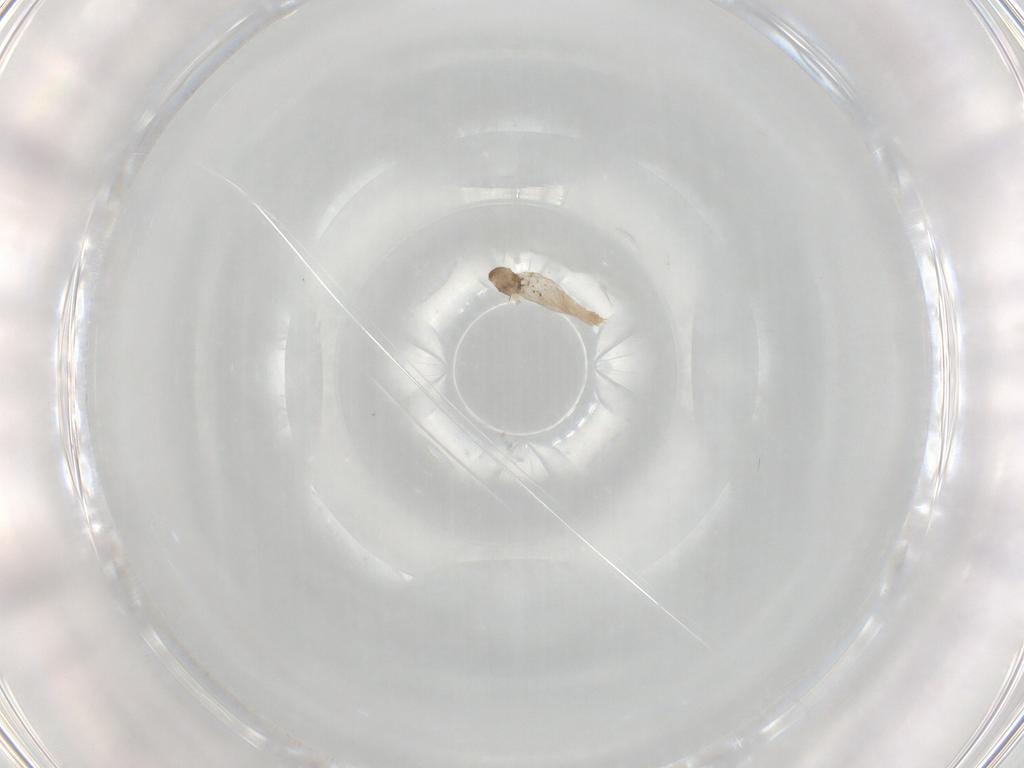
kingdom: Animalia
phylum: Arthropoda
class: Insecta
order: Diptera
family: Cecidomyiidae
